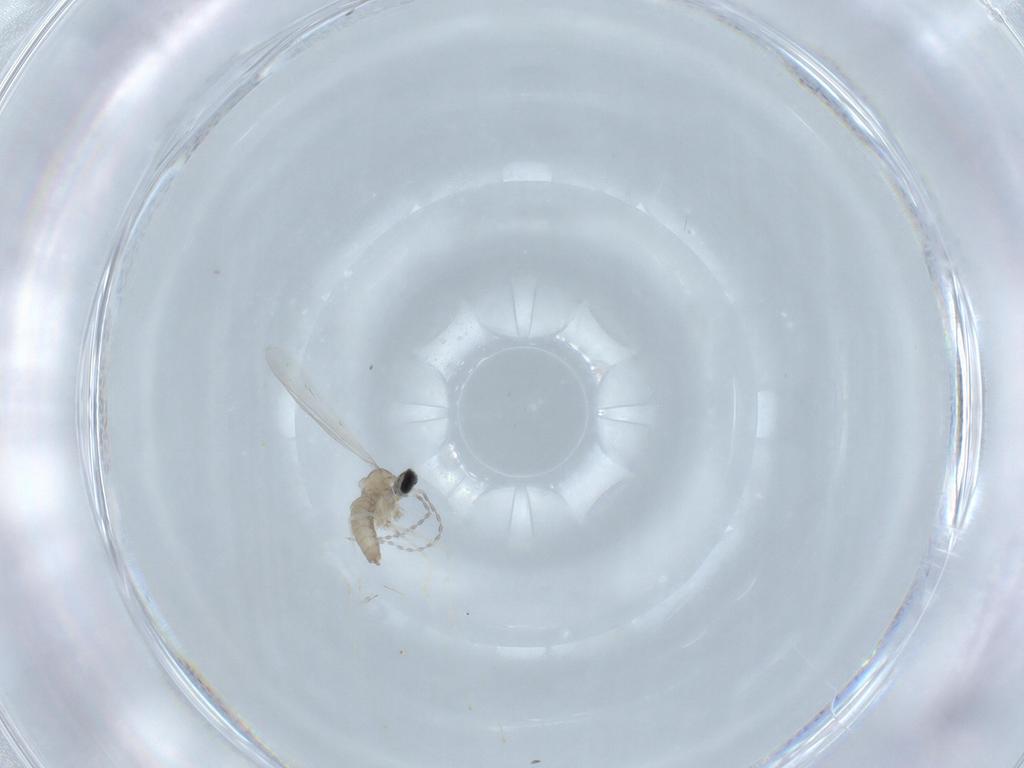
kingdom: Animalia
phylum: Arthropoda
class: Insecta
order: Diptera
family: Cecidomyiidae
